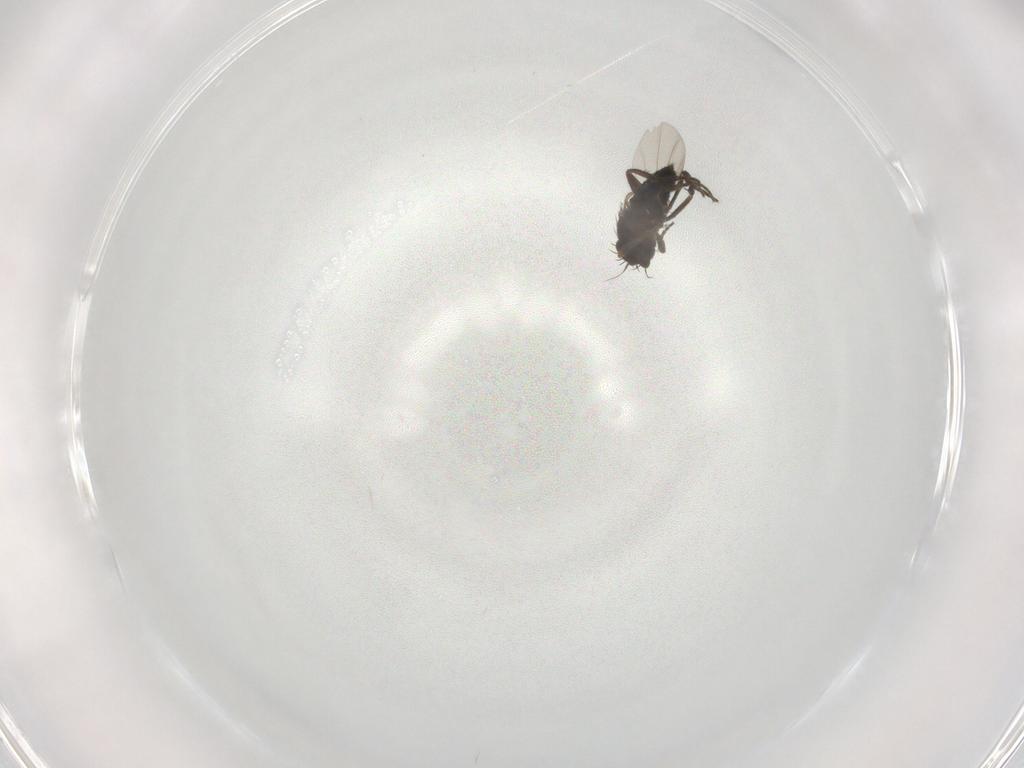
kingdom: Animalia
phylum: Arthropoda
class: Insecta
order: Diptera
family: Phoridae
